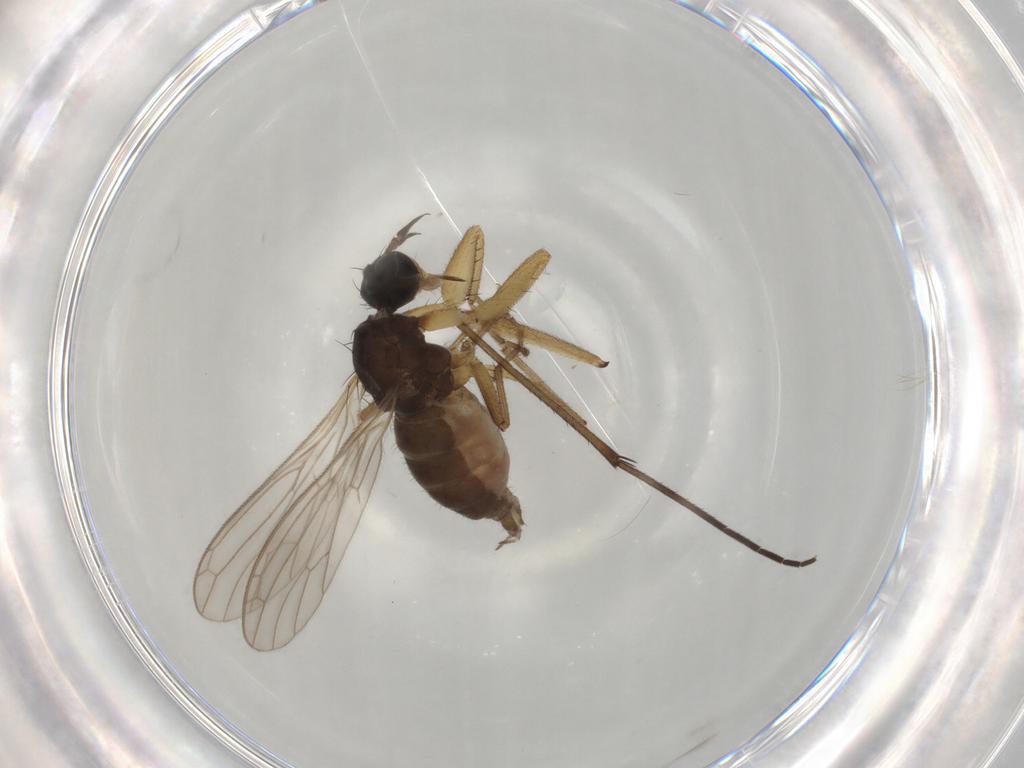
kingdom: Animalia
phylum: Arthropoda
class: Insecta
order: Diptera
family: Empididae
